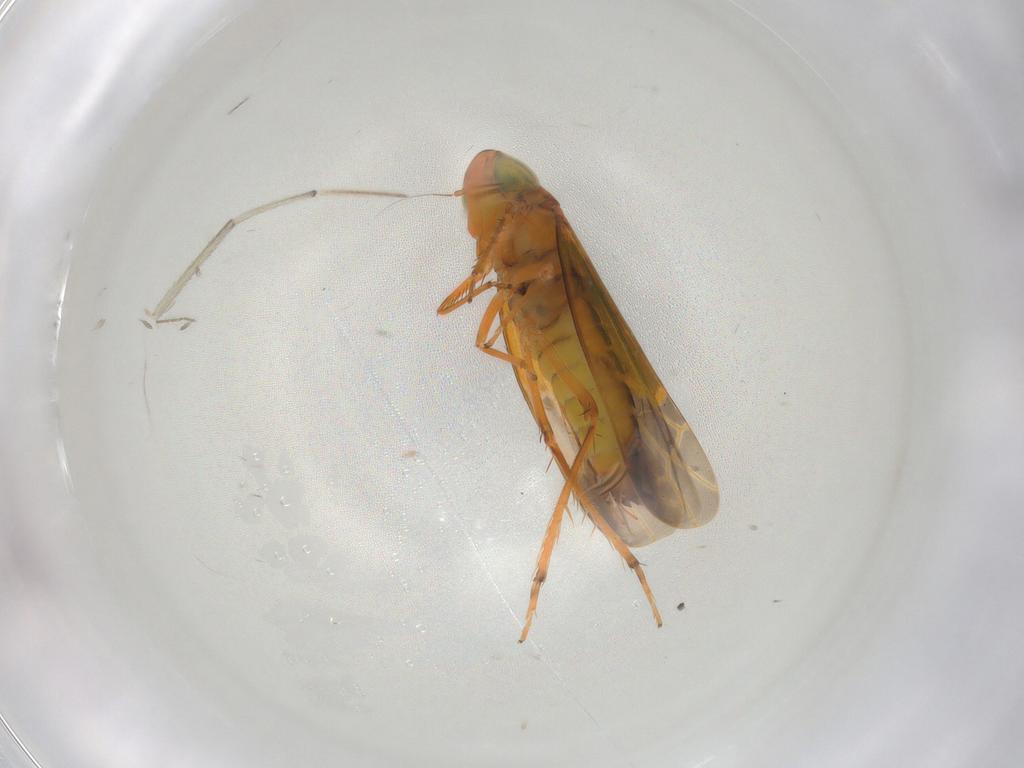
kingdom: Animalia
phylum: Arthropoda
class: Insecta
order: Hemiptera
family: Cicadellidae
